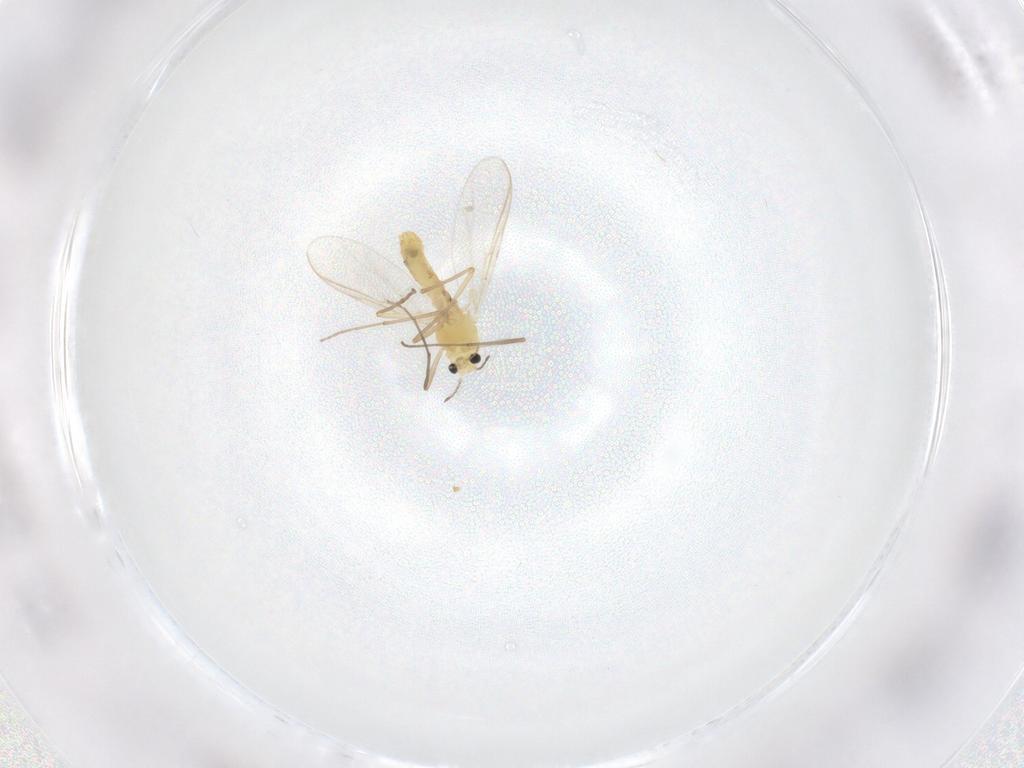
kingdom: Animalia
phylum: Arthropoda
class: Insecta
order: Diptera
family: Chironomidae
